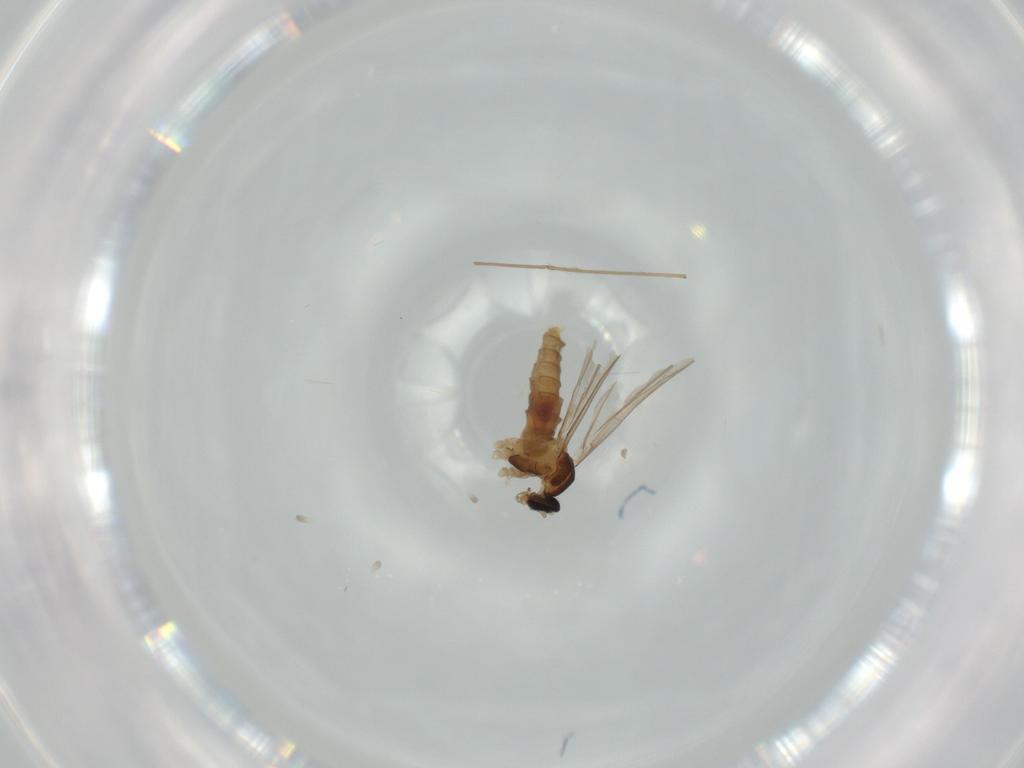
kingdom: Animalia
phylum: Arthropoda
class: Insecta
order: Diptera
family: Cecidomyiidae
